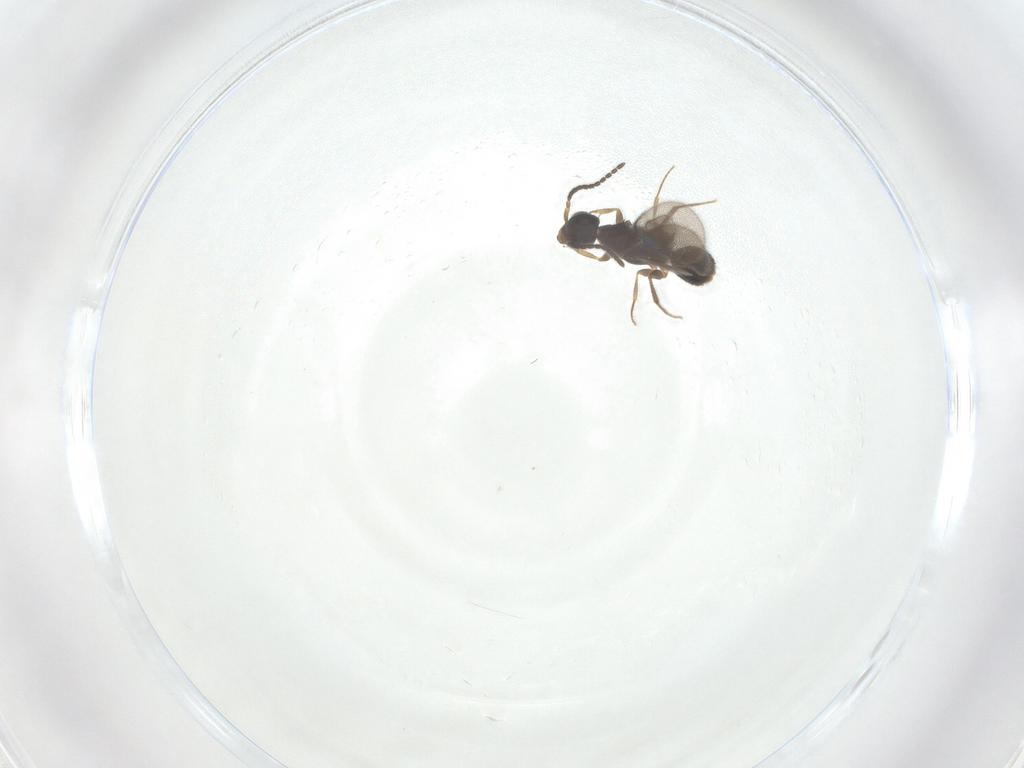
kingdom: Animalia
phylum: Arthropoda
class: Insecta
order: Hymenoptera
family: Bethylidae
